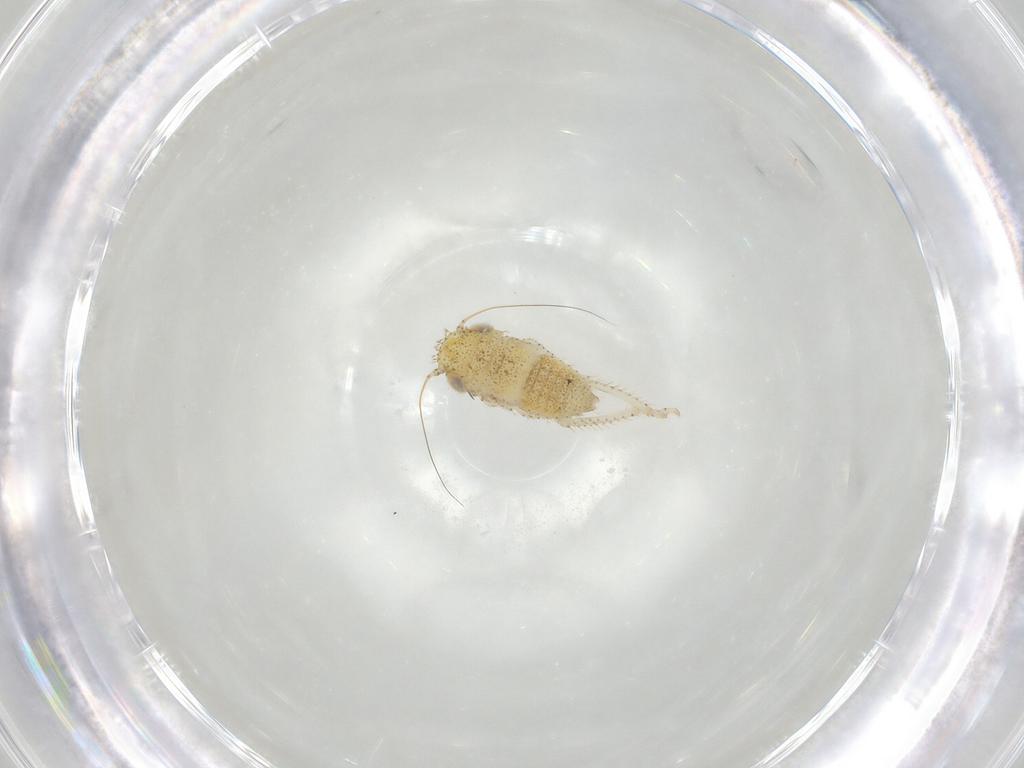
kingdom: Animalia
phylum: Arthropoda
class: Insecta
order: Hemiptera
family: Cicadellidae
